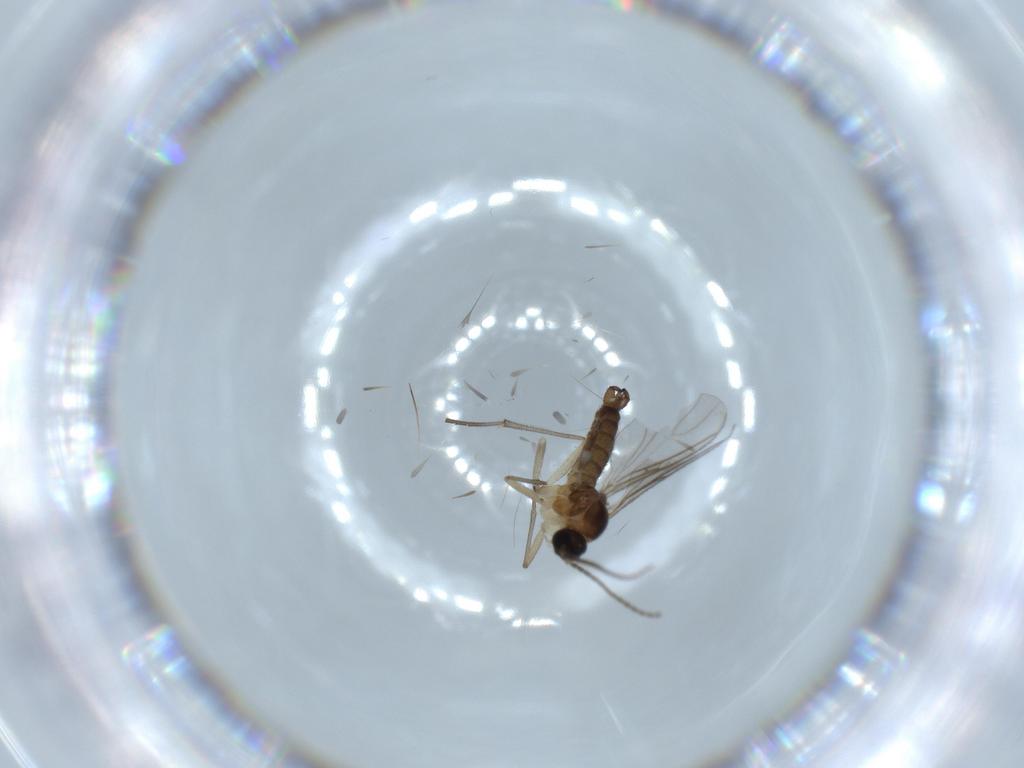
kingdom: Animalia
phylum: Arthropoda
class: Insecta
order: Diptera
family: Sciaridae
